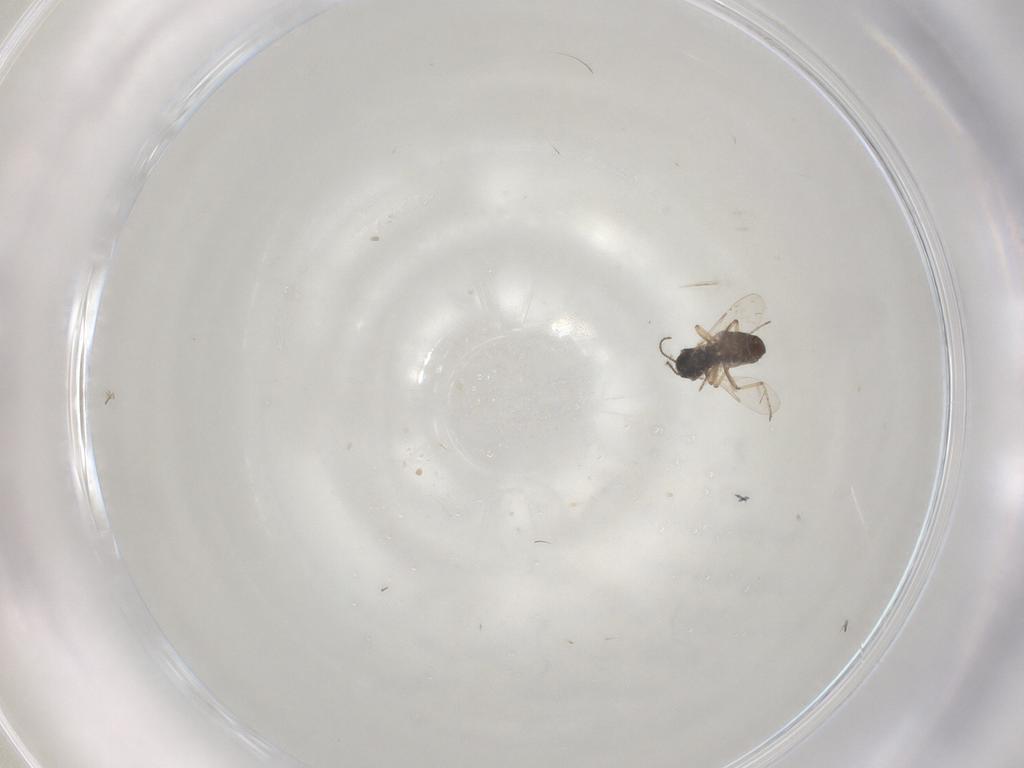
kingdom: Animalia
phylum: Arthropoda
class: Insecta
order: Diptera
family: Ceratopogonidae
